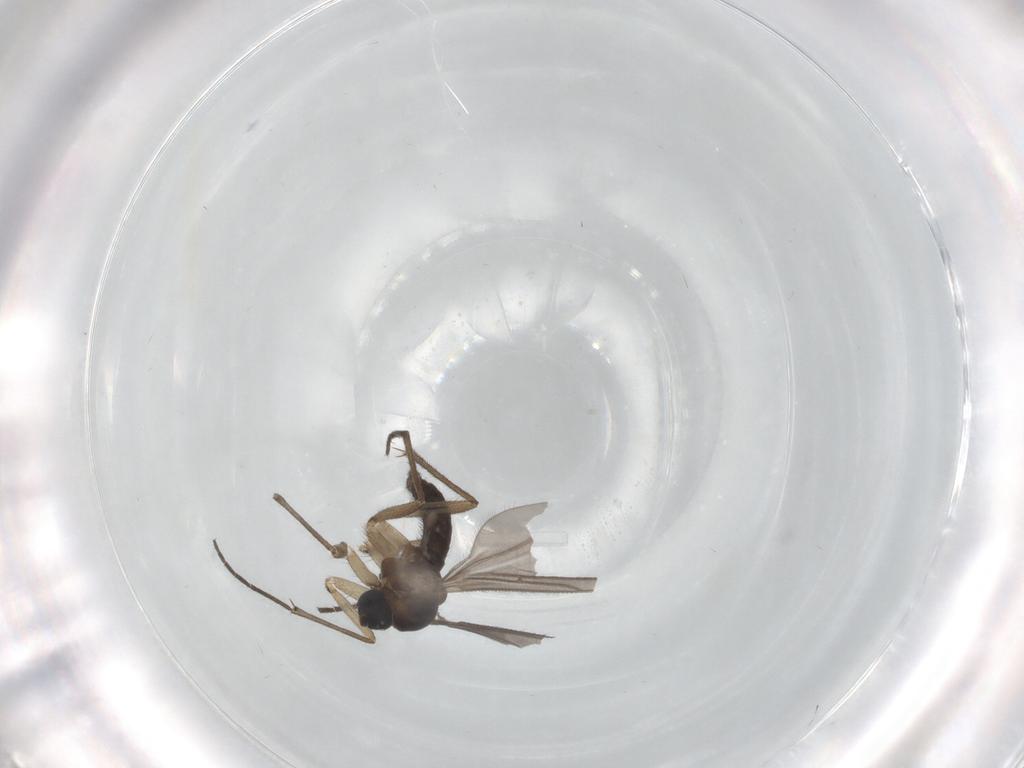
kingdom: Animalia
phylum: Arthropoda
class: Insecta
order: Diptera
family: Sciaridae
